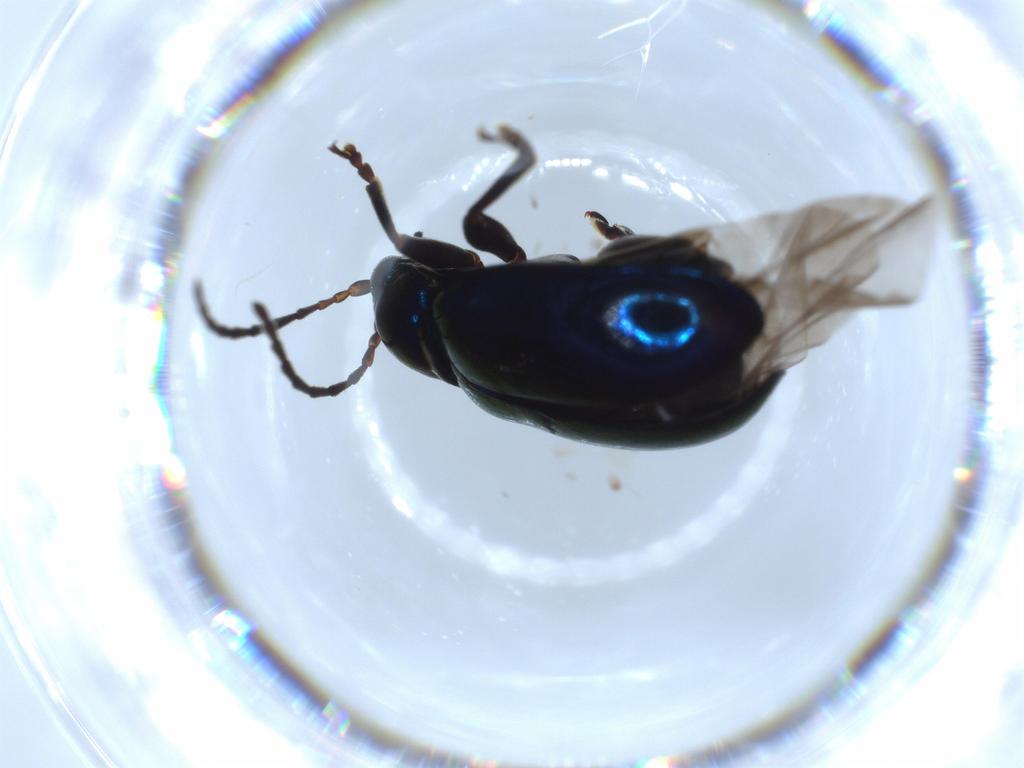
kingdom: Animalia
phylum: Arthropoda
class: Insecta
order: Coleoptera
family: Chrysomelidae
